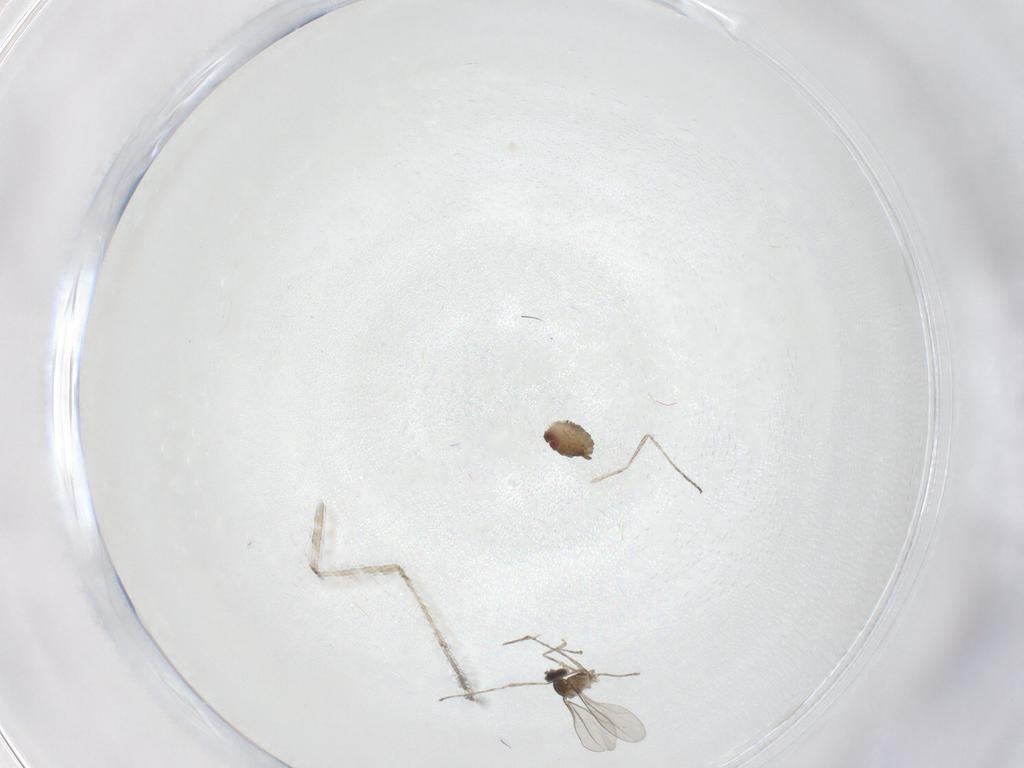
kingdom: Animalia
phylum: Arthropoda
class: Insecta
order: Diptera
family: Cecidomyiidae
